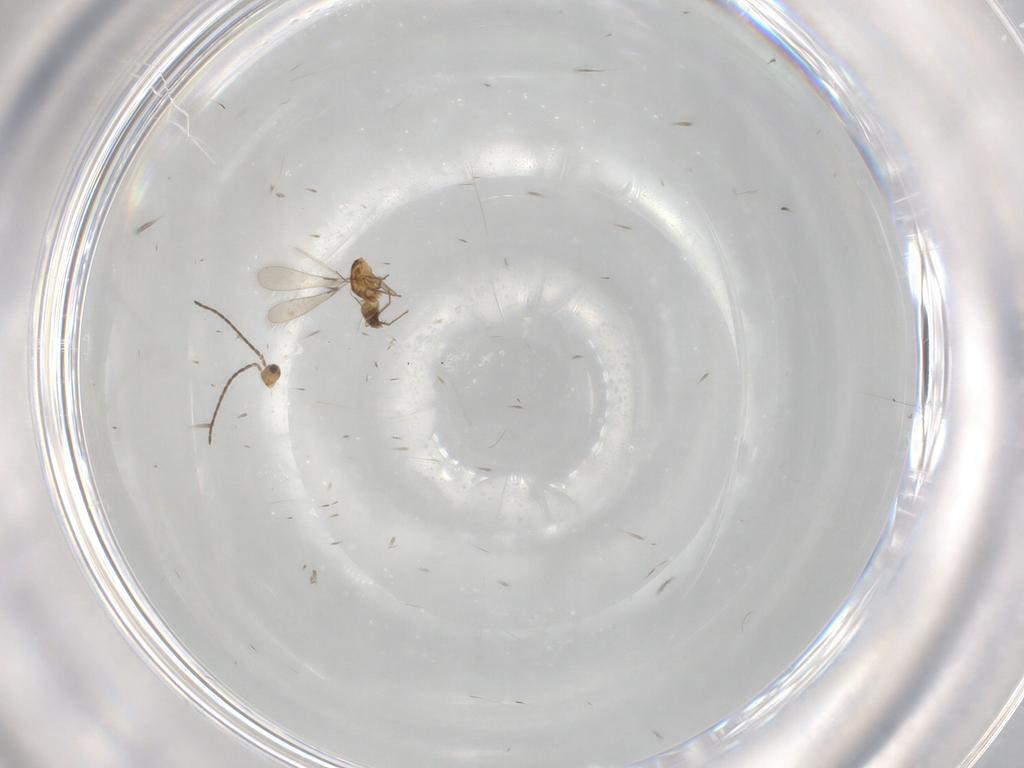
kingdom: Animalia
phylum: Arthropoda
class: Insecta
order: Hymenoptera
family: Mymaridae
